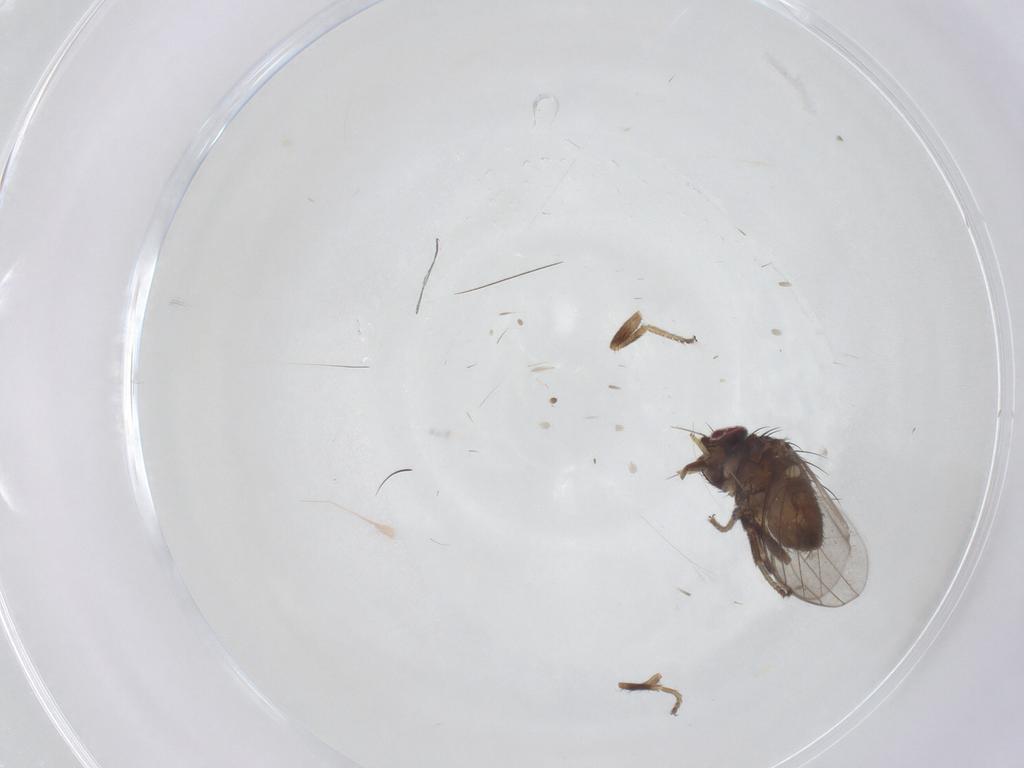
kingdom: Animalia
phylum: Arthropoda
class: Insecta
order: Diptera
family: Milichiidae
